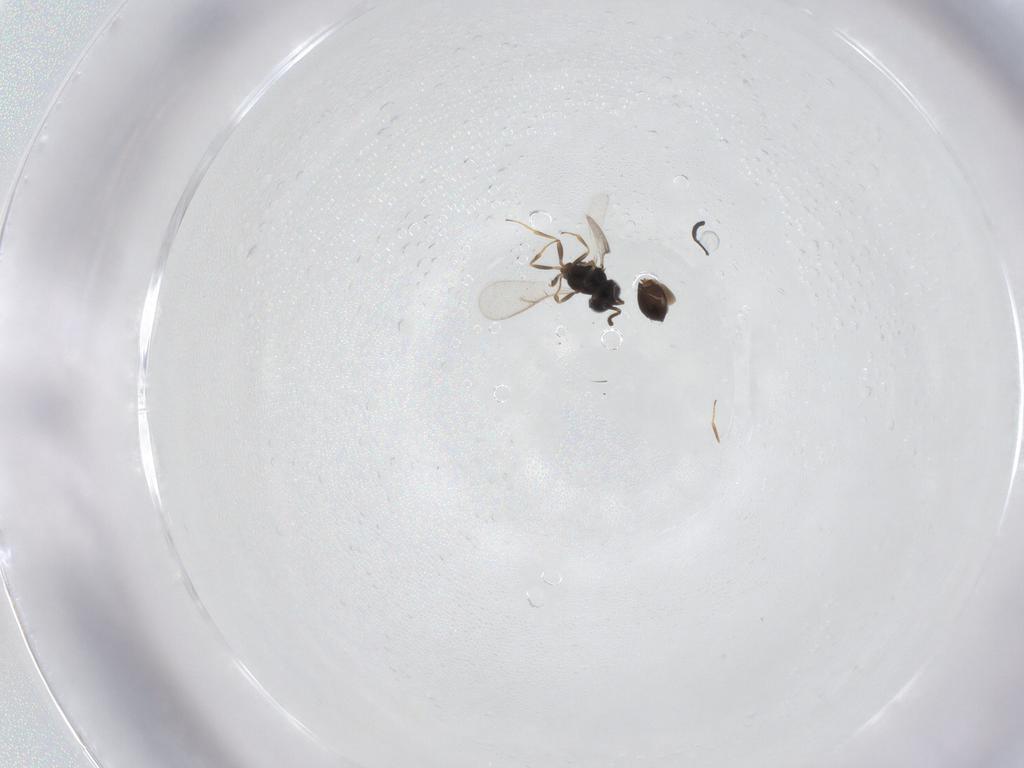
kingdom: Animalia
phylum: Arthropoda
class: Insecta
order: Hymenoptera
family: Scelionidae
